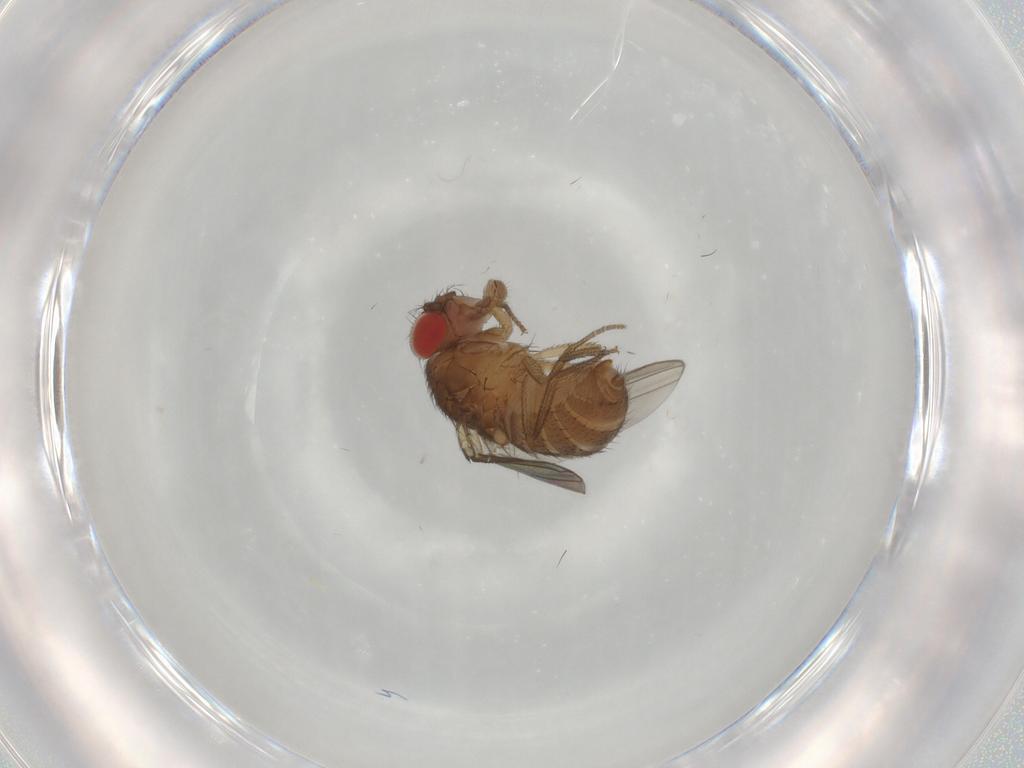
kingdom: Animalia
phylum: Arthropoda
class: Insecta
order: Diptera
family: Drosophilidae
